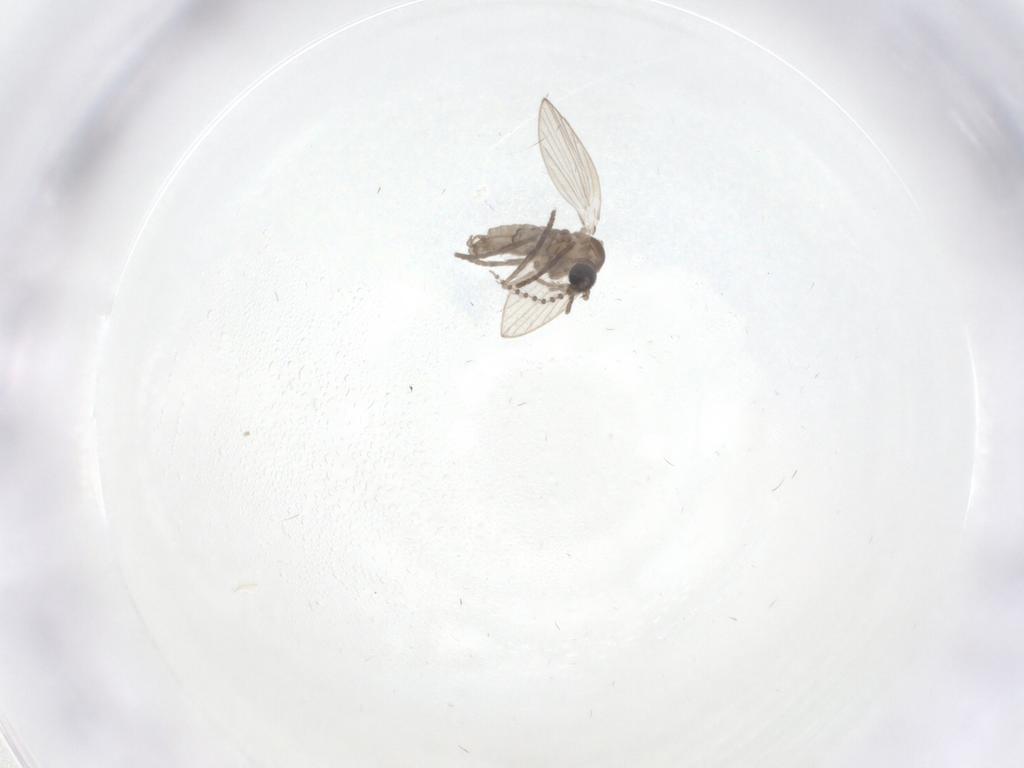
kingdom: Animalia
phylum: Arthropoda
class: Insecta
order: Diptera
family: Psychodidae
